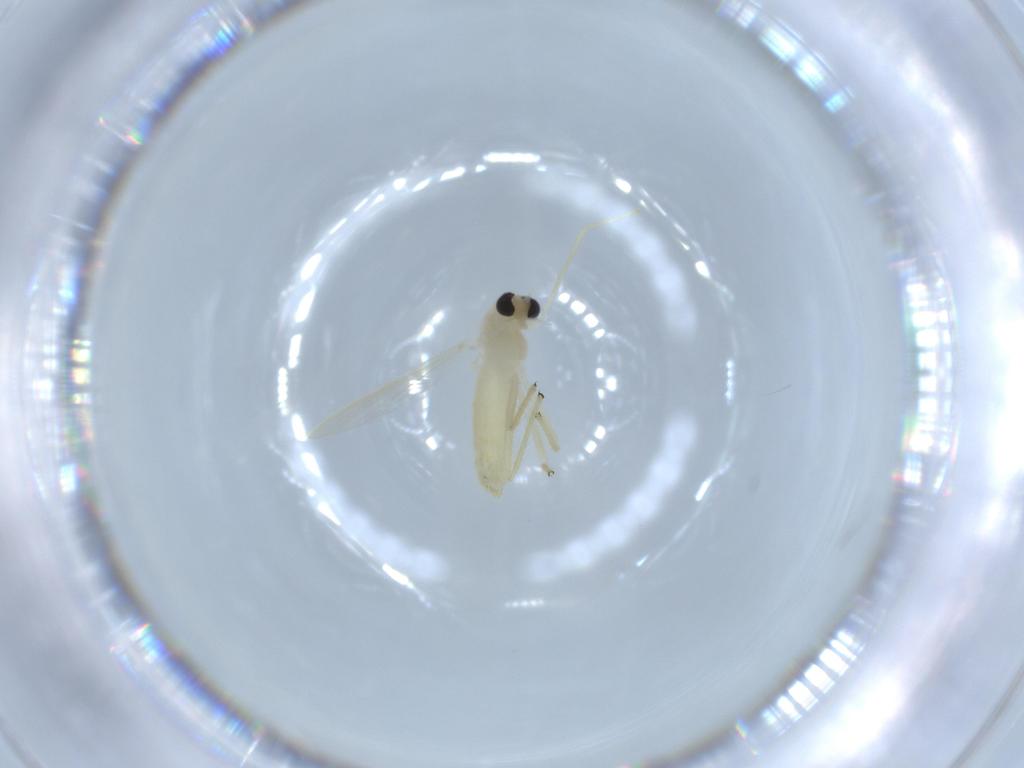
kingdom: Animalia
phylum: Arthropoda
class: Insecta
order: Diptera
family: Chironomidae
